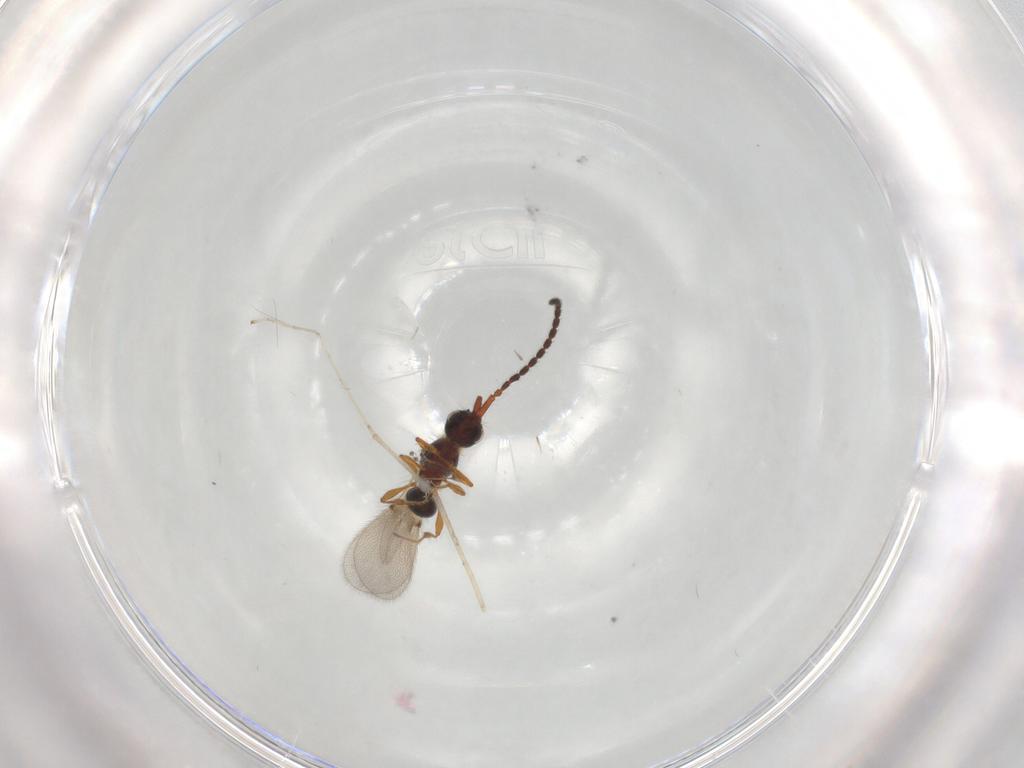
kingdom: Animalia
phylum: Arthropoda
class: Insecta
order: Hymenoptera
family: Diapriidae
